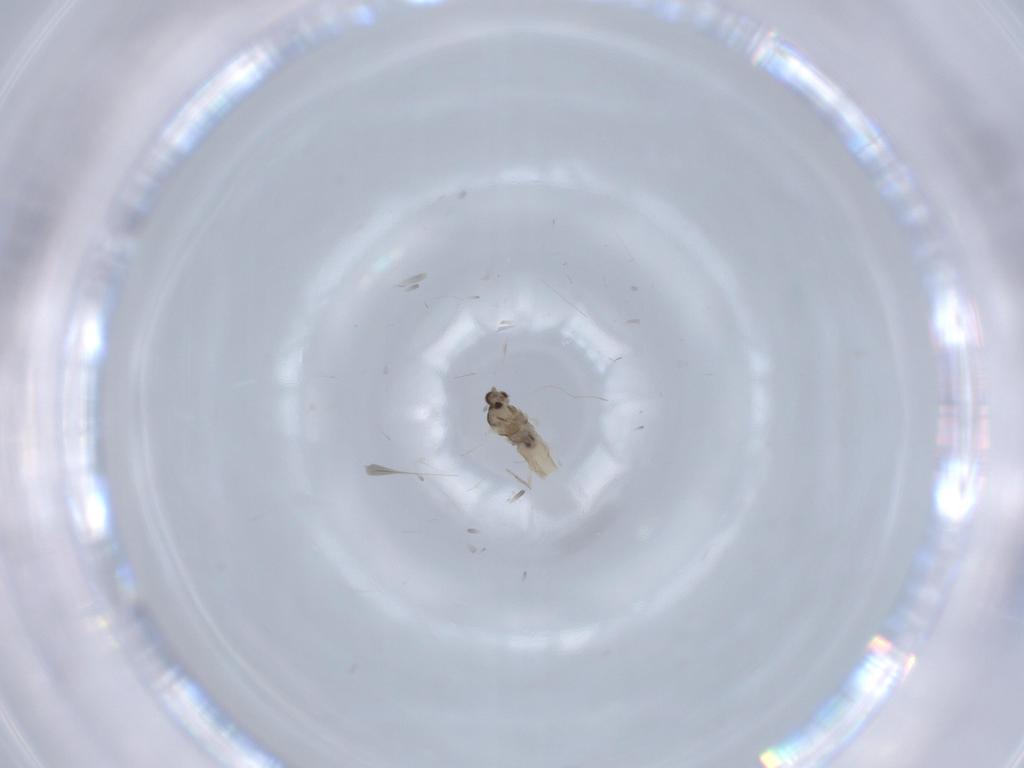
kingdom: Animalia
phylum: Arthropoda
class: Insecta
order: Diptera
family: Cecidomyiidae
